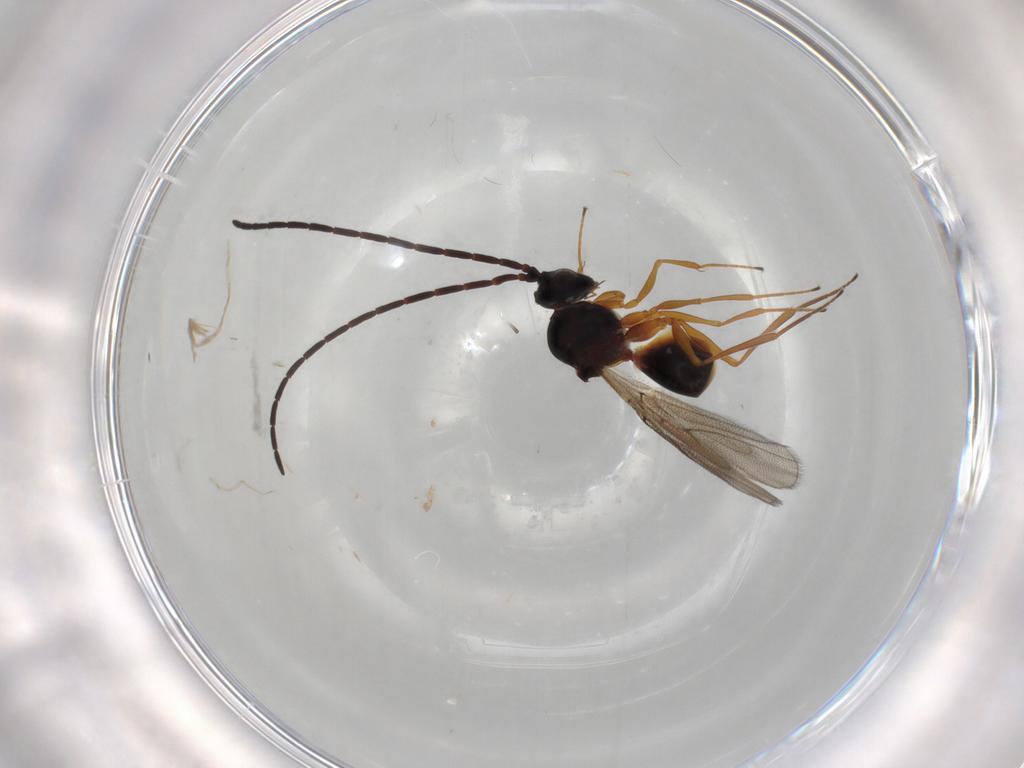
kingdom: Animalia
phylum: Arthropoda
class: Insecta
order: Hymenoptera
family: Figitidae
